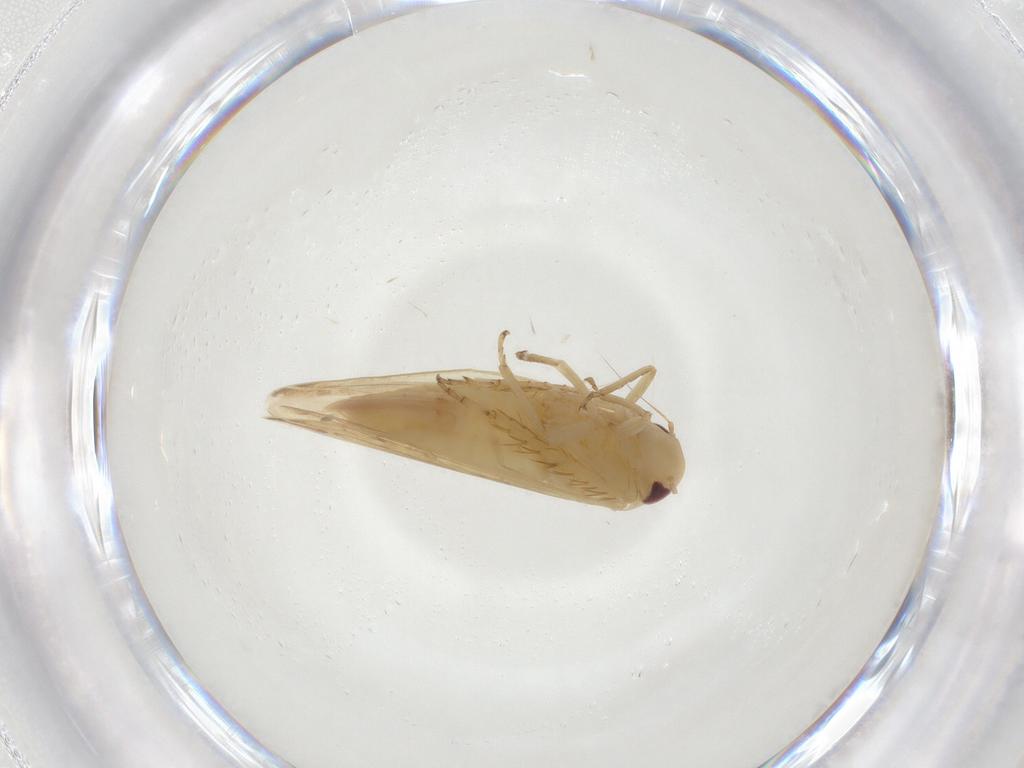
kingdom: Animalia
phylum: Arthropoda
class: Insecta
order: Hemiptera
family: Cicadellidae
